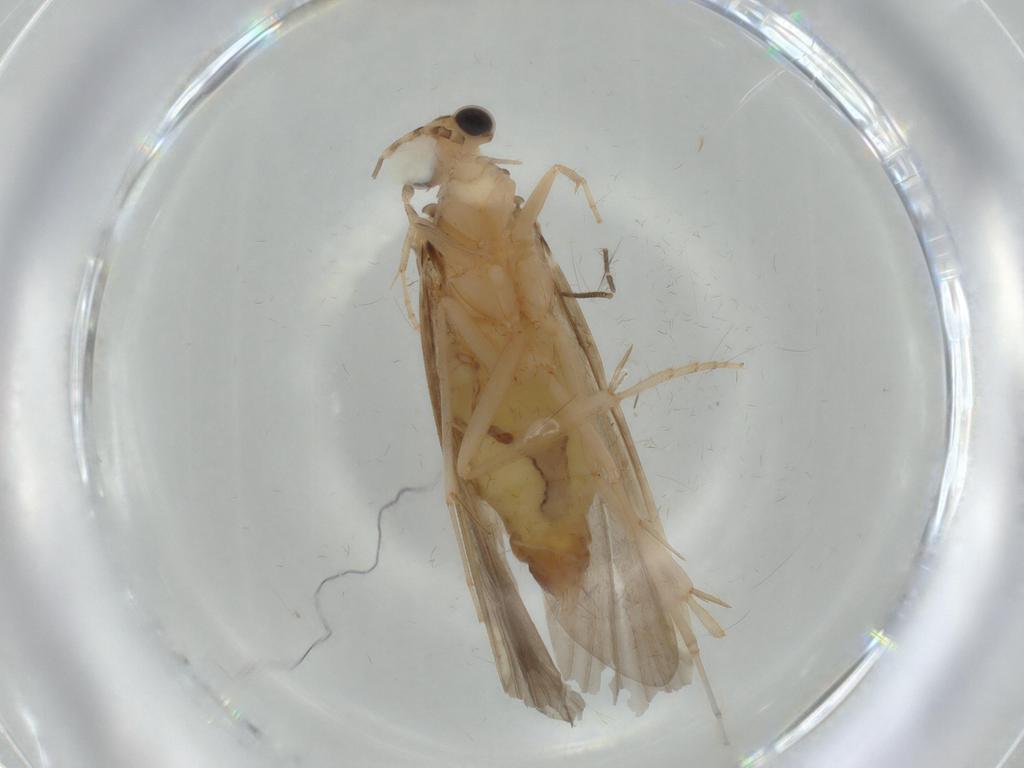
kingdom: Animalia
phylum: Arthropoda
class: Insecta
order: Trichoptera
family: Ecnomidae
